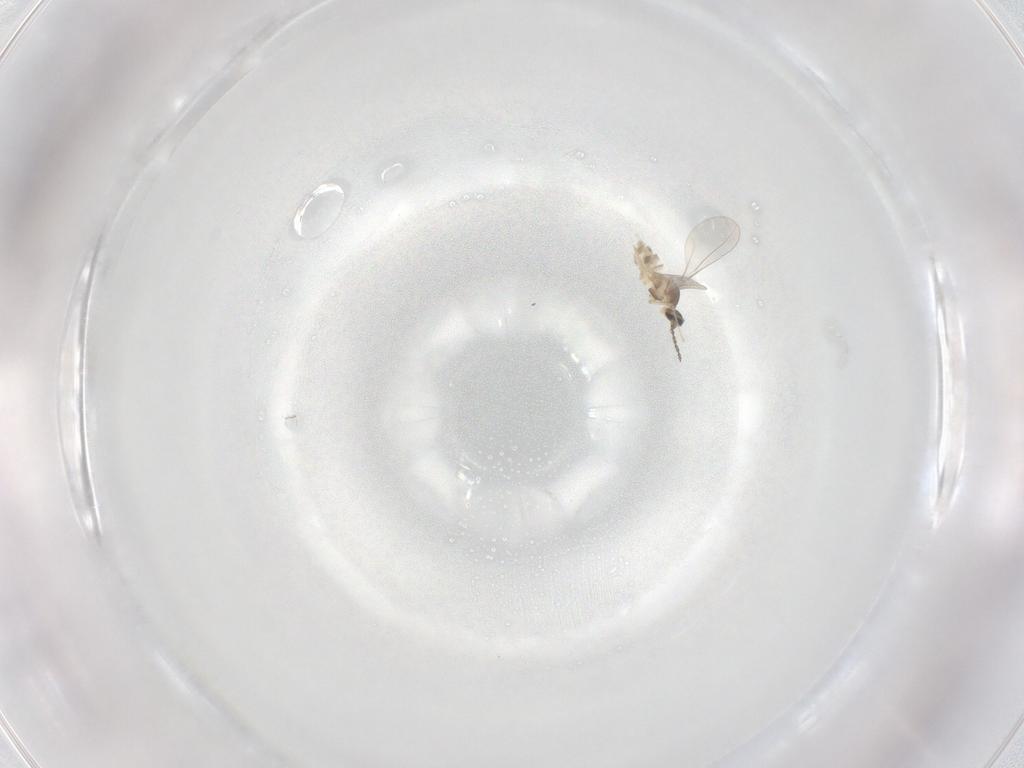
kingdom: Animalia
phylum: Arthropoda
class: Insecta
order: Diptera
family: Cecidomyiidae
